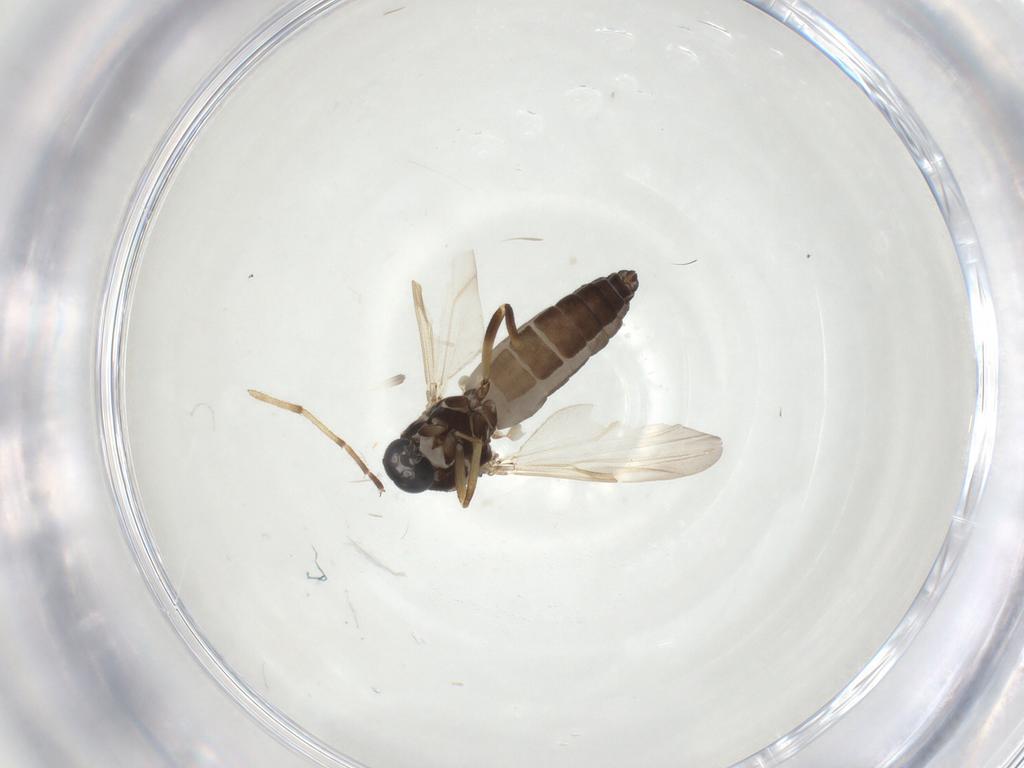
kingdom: Animalia
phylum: Arthropoda
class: Insecta
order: Diptera
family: Ceratopogonidae
